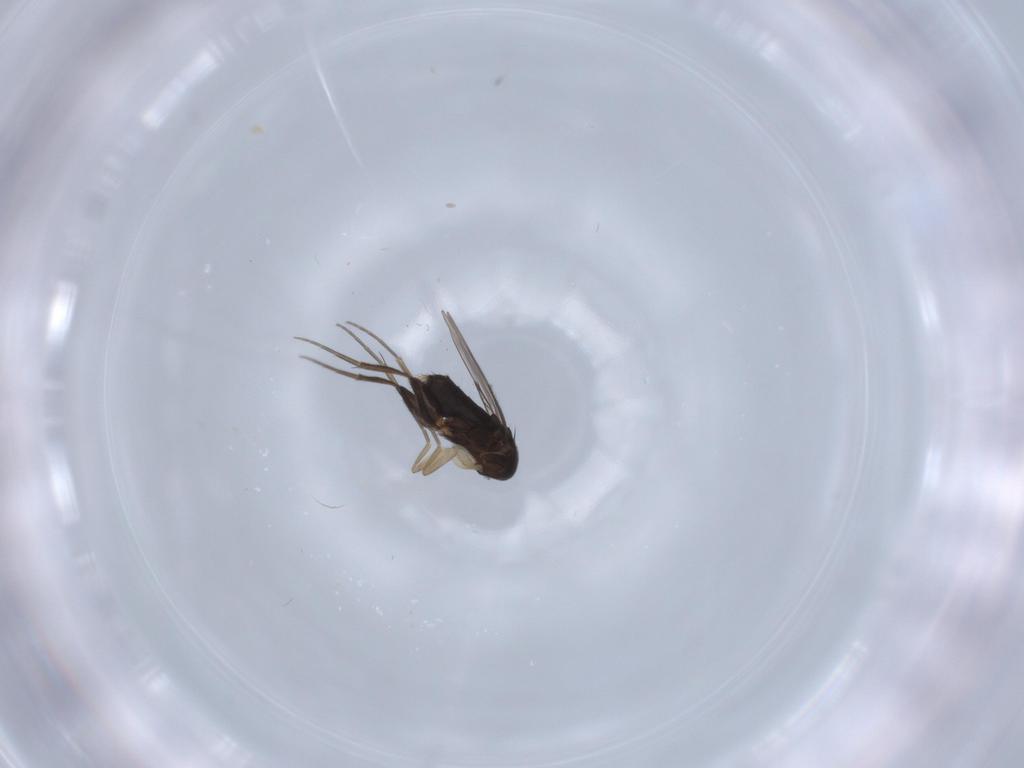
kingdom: Animalia
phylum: Arthropoda
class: Insecta
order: Diptera
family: Phoridae
